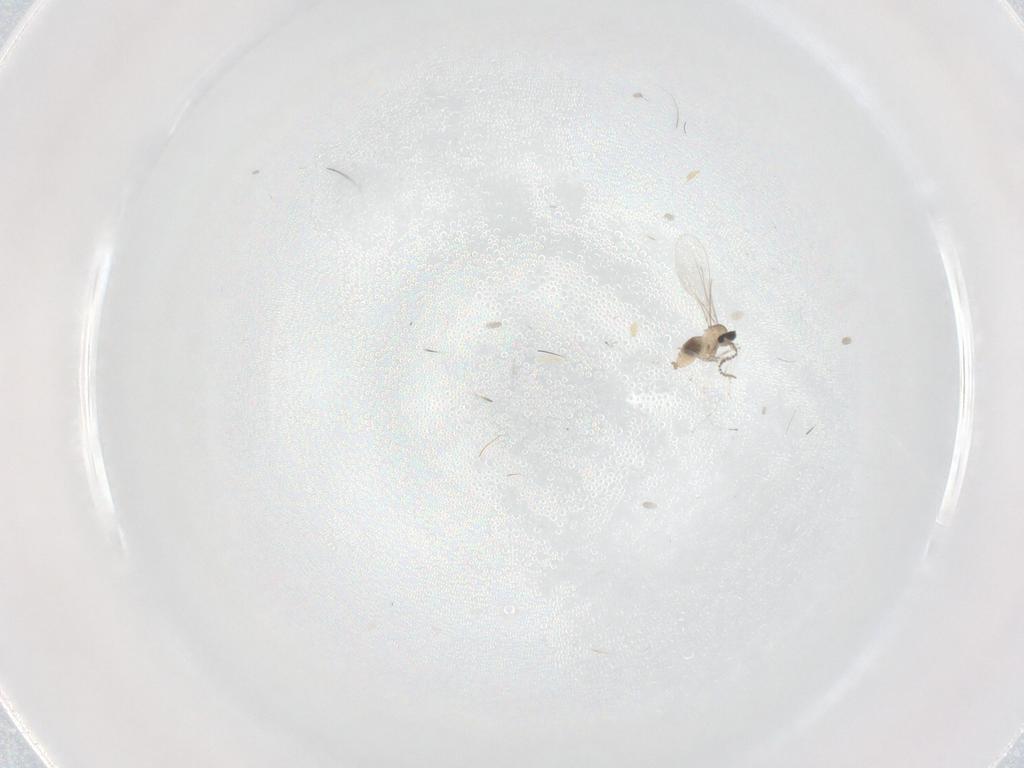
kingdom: Animalia
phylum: Arthropoda
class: Insecta
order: Diptera
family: Cecidomyiidae
